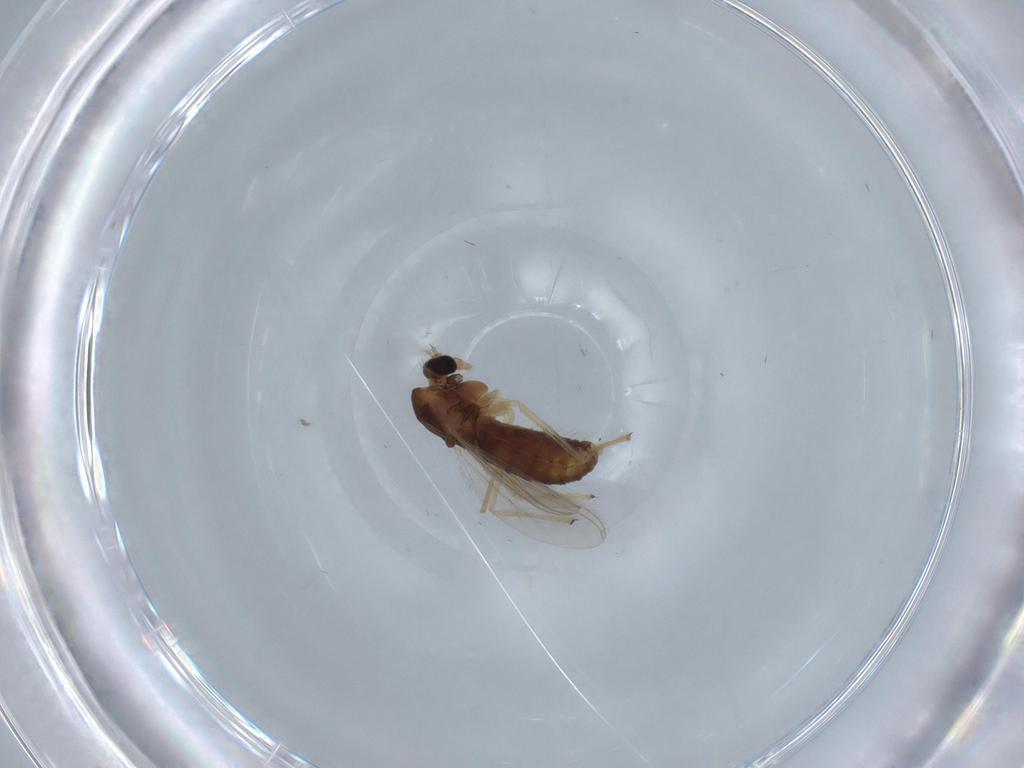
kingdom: Animalia
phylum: Arthropoda
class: Insecta
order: Diptera
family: Chironomidae
